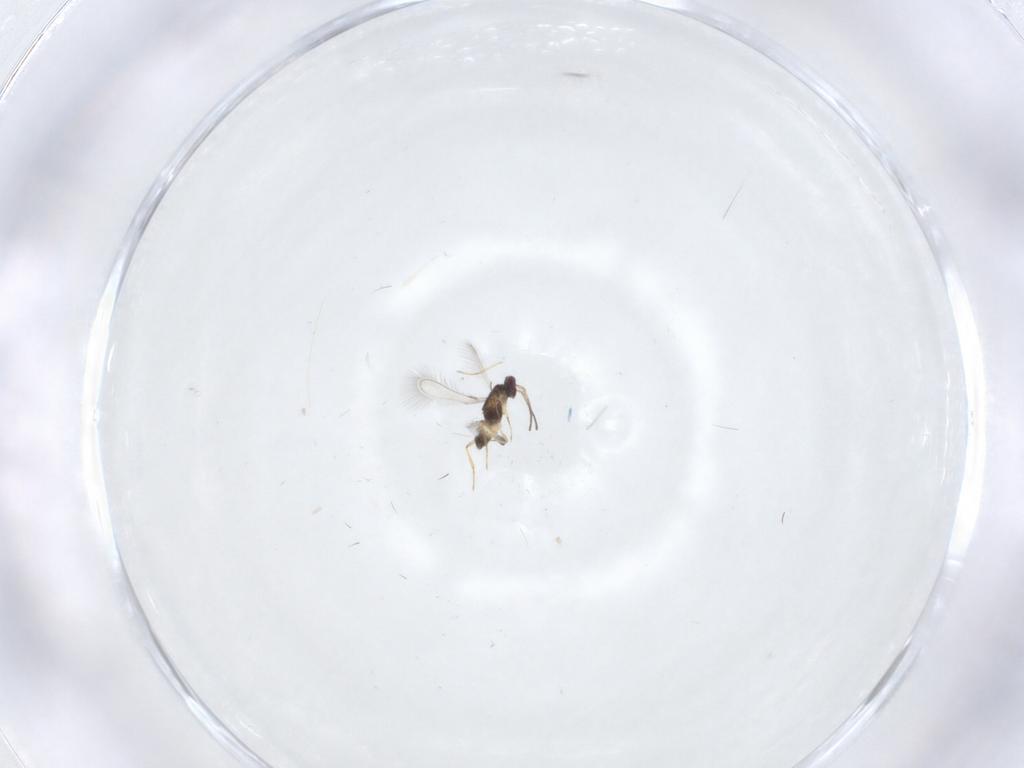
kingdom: Animalia
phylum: Arthropoda
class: Insecta
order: Hymenoptera
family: Mymaridae
